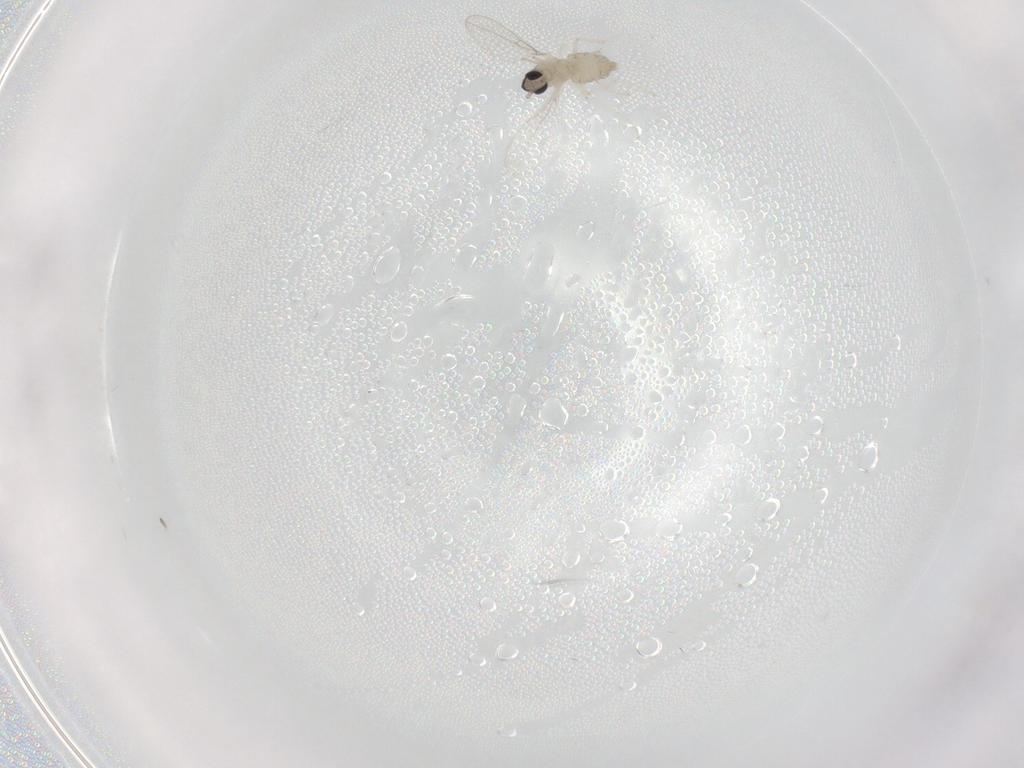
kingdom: Animalia
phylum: Arthropoda
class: Insecta
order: Diptera
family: Cecidomyiidae
